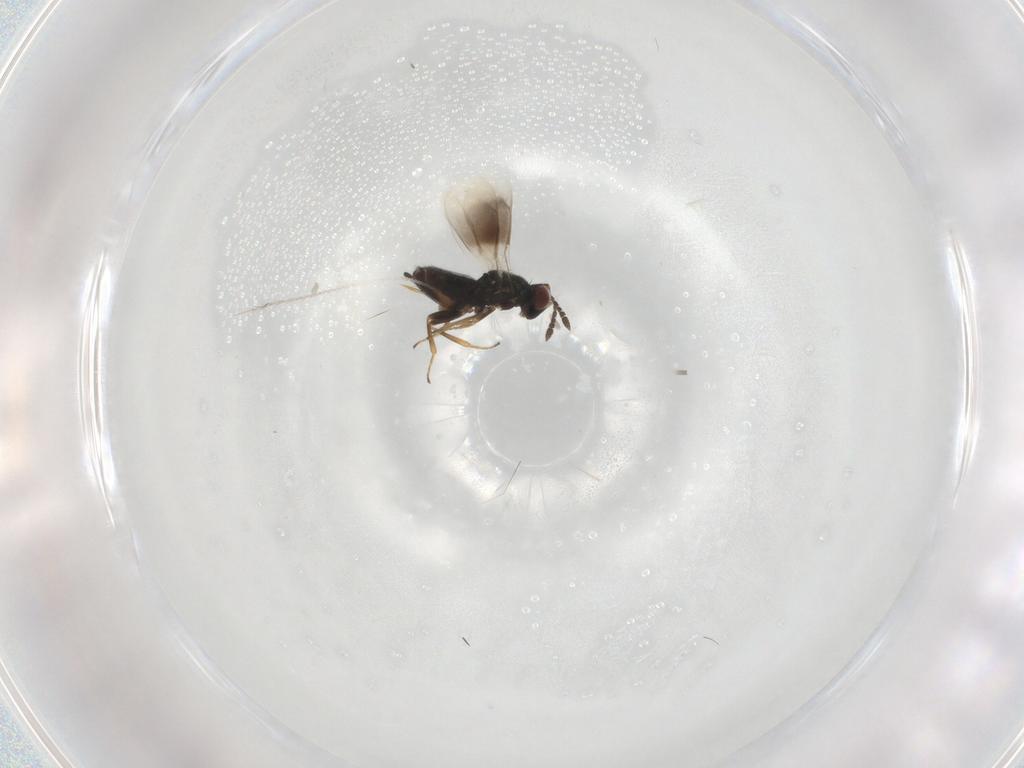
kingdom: Animalia
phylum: Arthropoda
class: Insecta
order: Hymenoptera
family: Eulophidae
